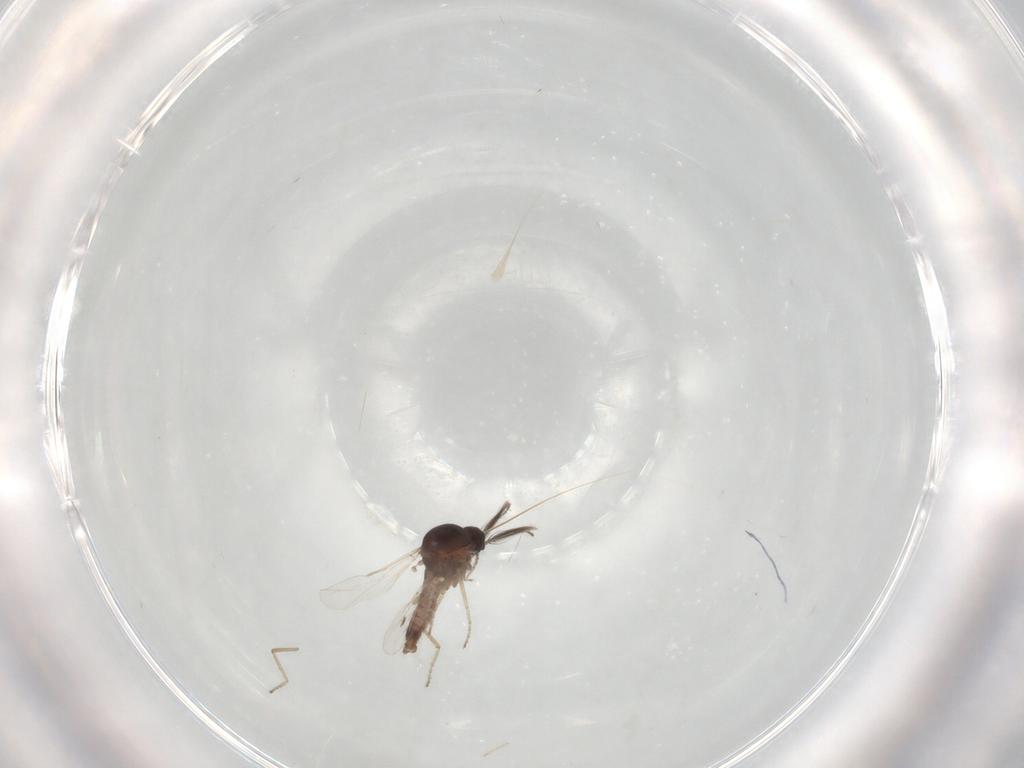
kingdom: Animalia
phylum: Arthropoda
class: Insecta
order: Diptera
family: Ceratopogonidae
